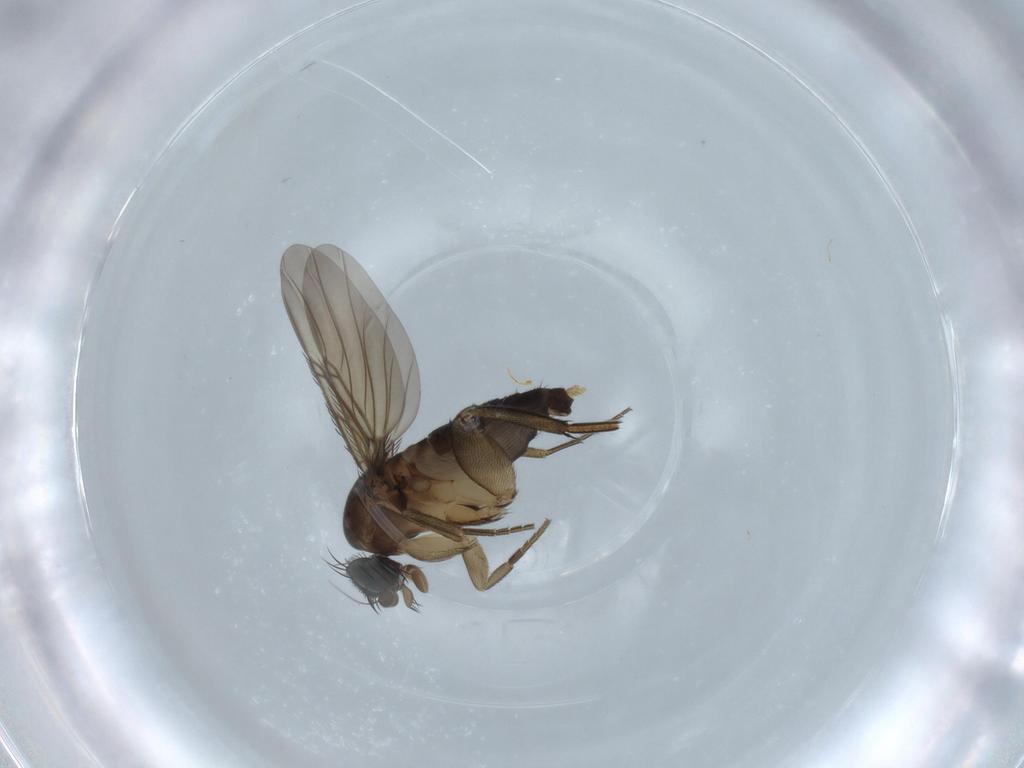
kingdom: Animalia
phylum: Arthropoda
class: Insecta
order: Diptera
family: Phoridae
